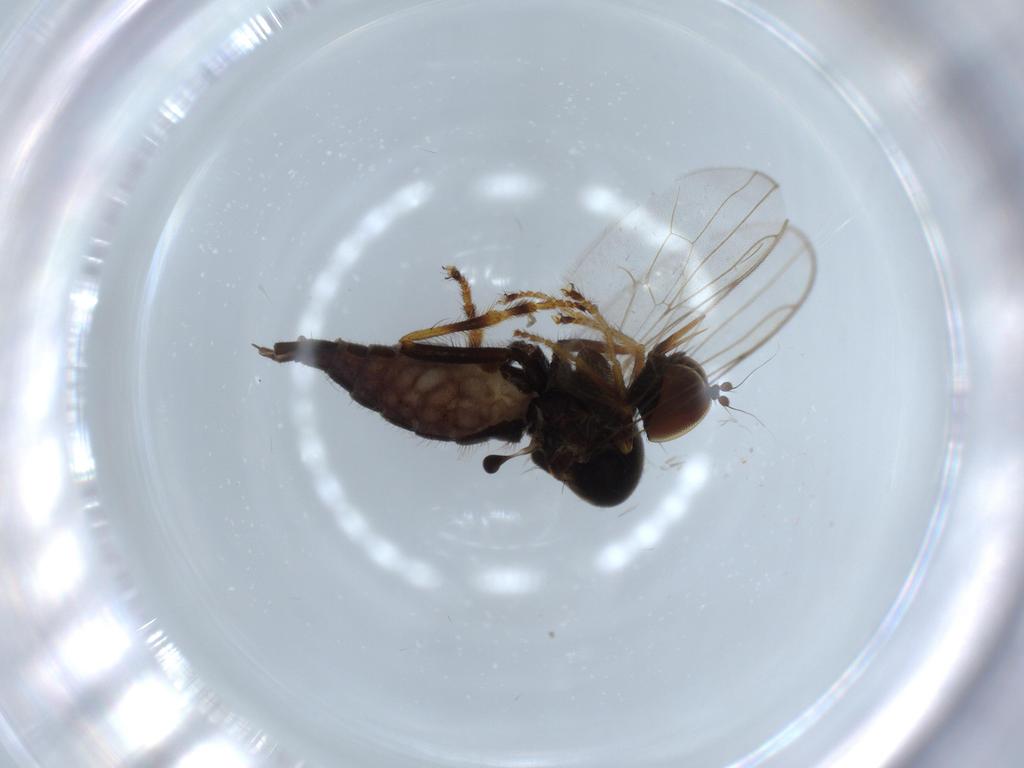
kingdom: Animalia
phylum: Arthropoda
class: Insecta
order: Diptera
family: Hybotidae
